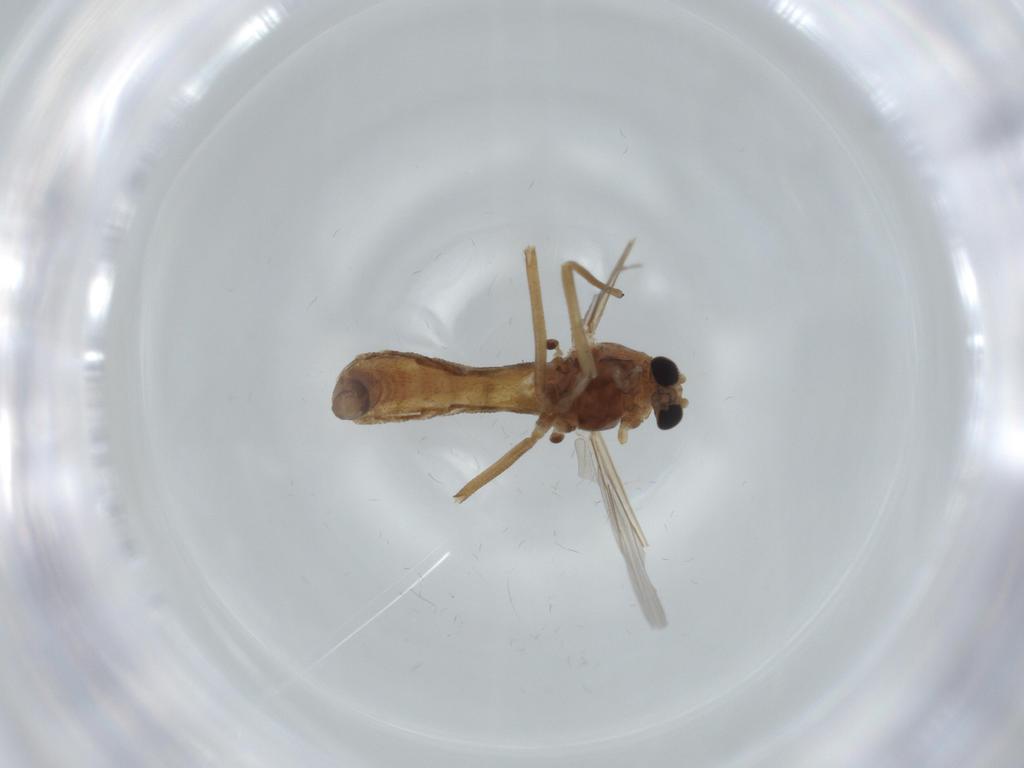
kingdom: Animalia
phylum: Arthropoda
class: Insecta
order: Diptera
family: Chironomidae
